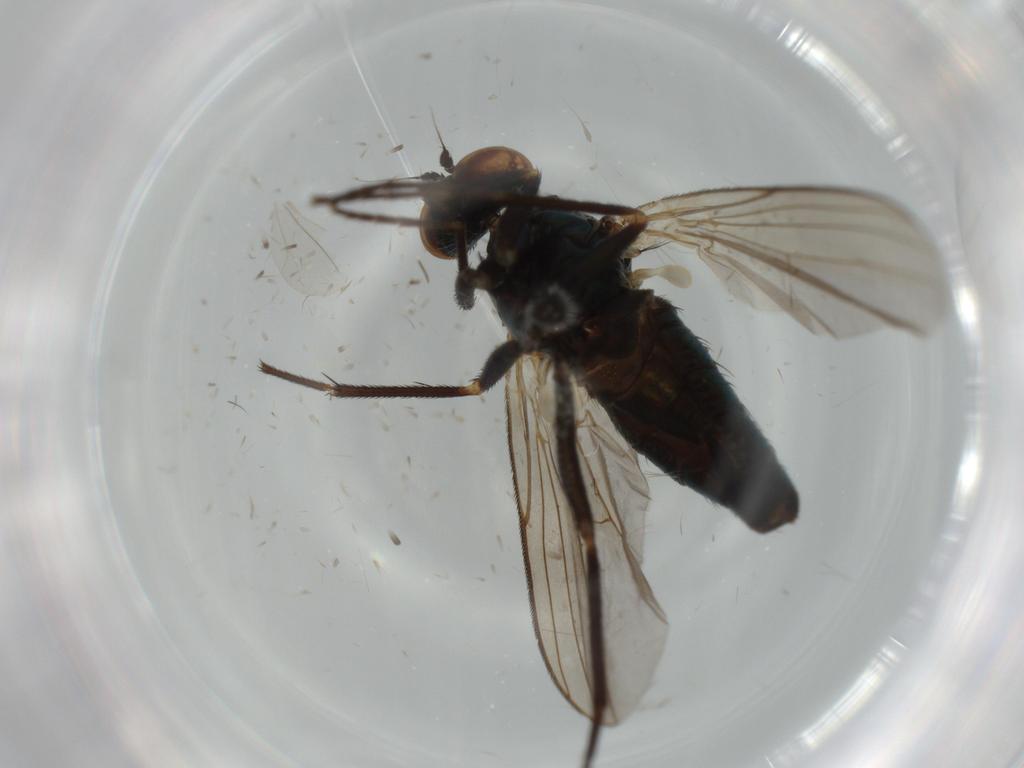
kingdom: Animalia
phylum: Arthropoda
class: Insecta
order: Diptera
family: Dolichopodidae
